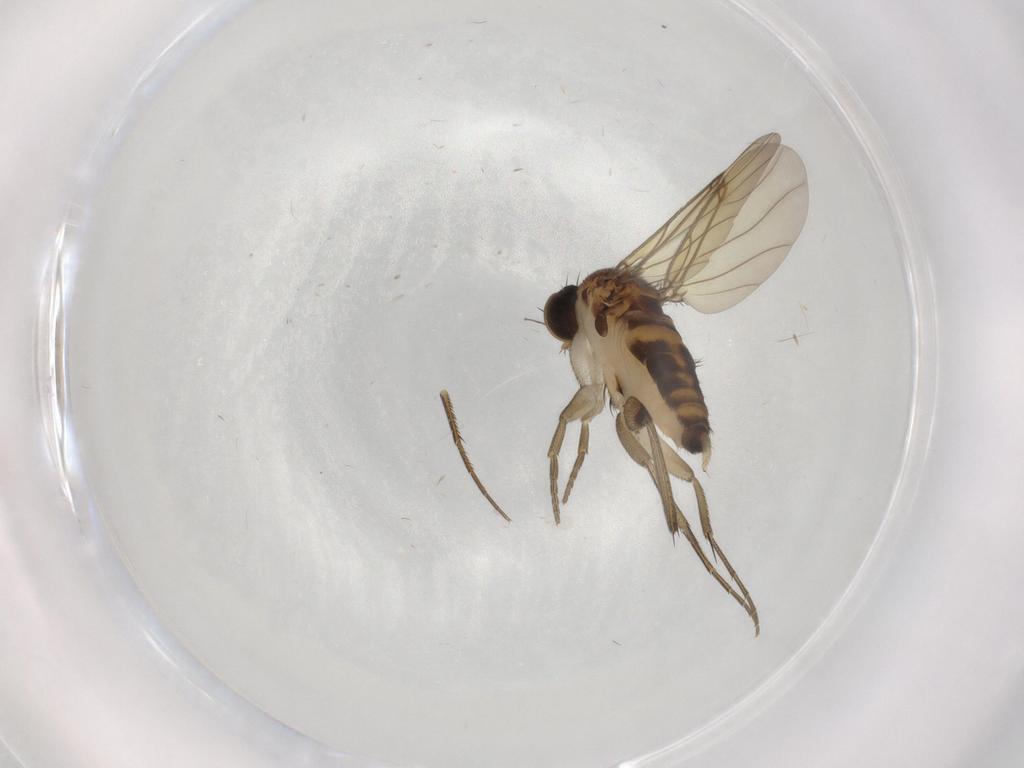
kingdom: Animalia
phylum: Arthropoda
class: Insecta
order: Diptera
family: Phoridae
